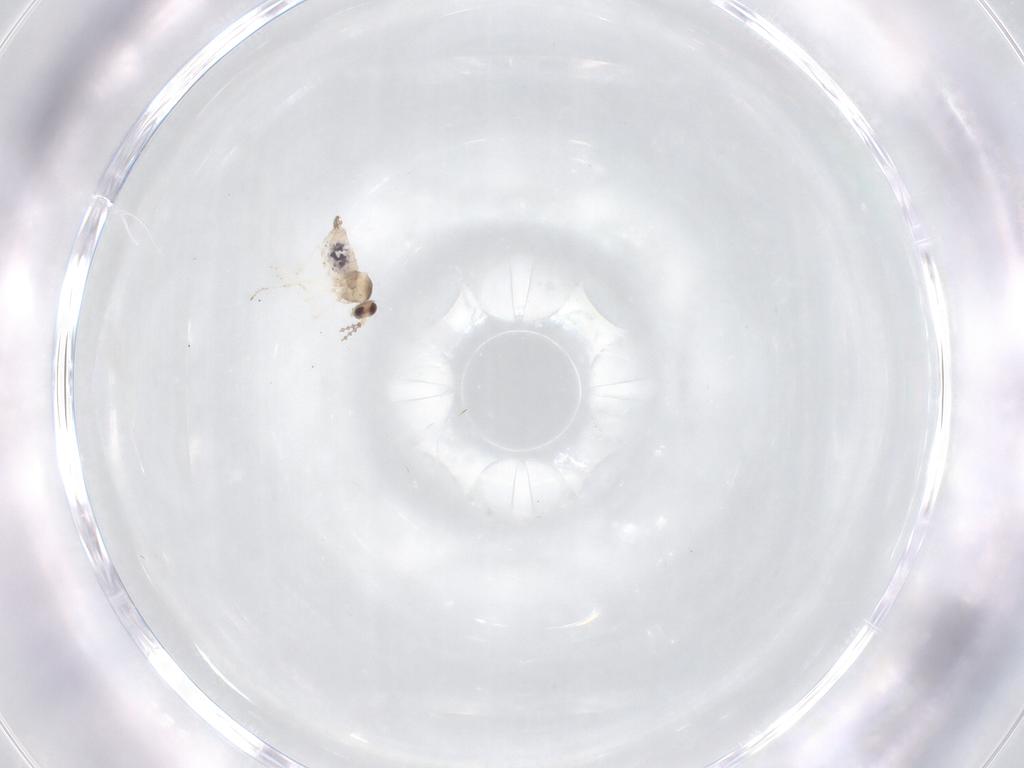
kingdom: Animalia
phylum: Arthropoda
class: Insecta
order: Diptera
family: Cecidomyiidae
